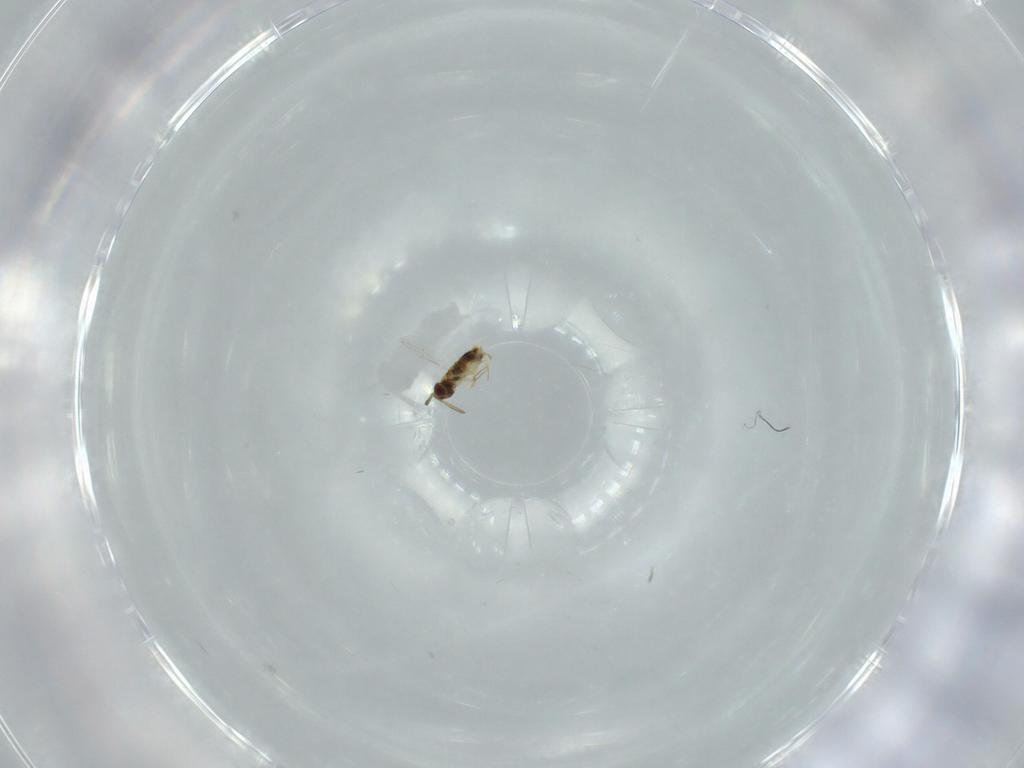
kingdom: Animalia
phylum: Arthropoda
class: Insecta
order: Hymenoptera
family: Aphelinidae
